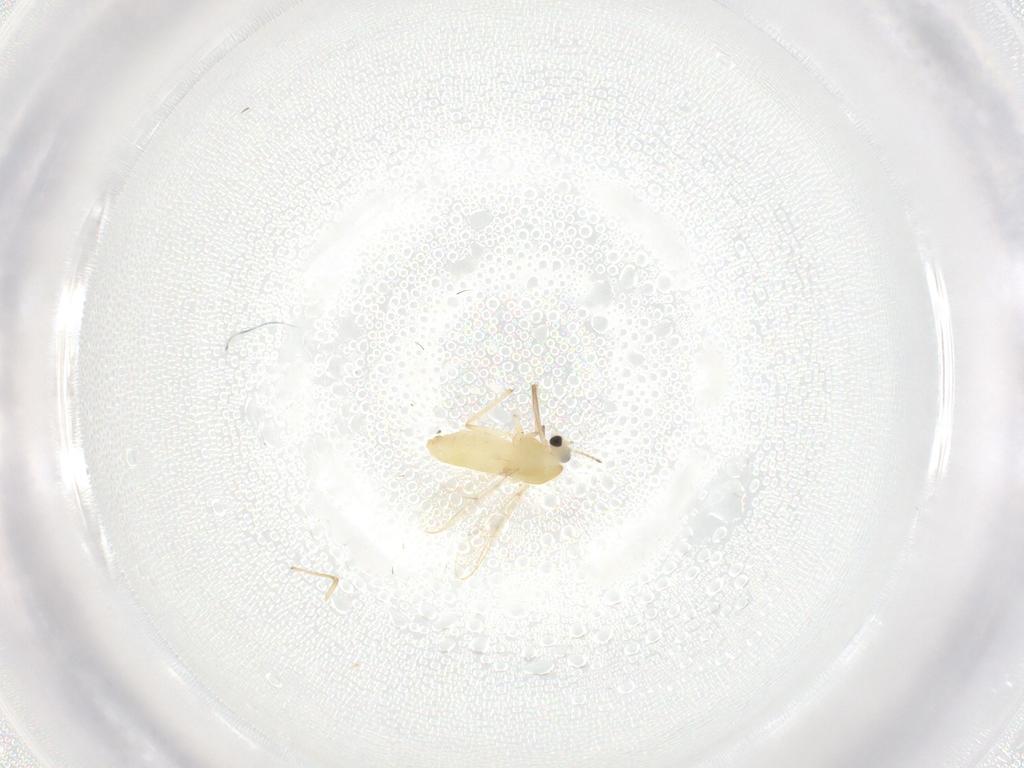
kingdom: Animalia
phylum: Arthropoda
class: Insecta
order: Diptera
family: Chironomidae
